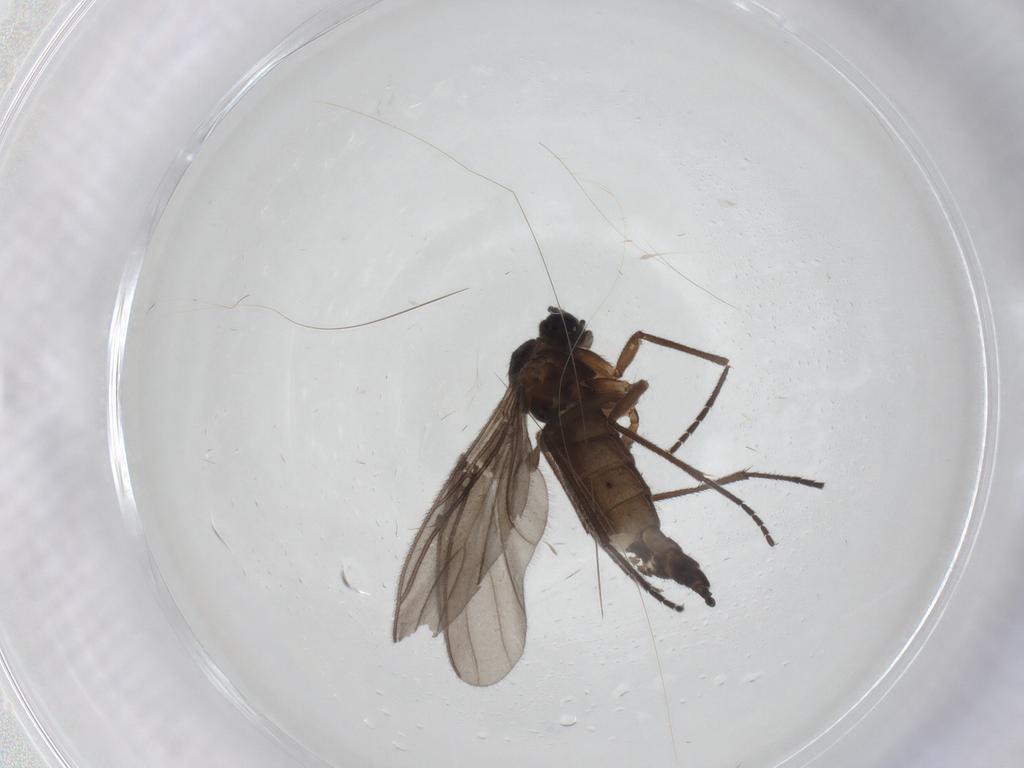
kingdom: Animalia
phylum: Arthropoda
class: Insecta
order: Diptera
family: Sciaridae
